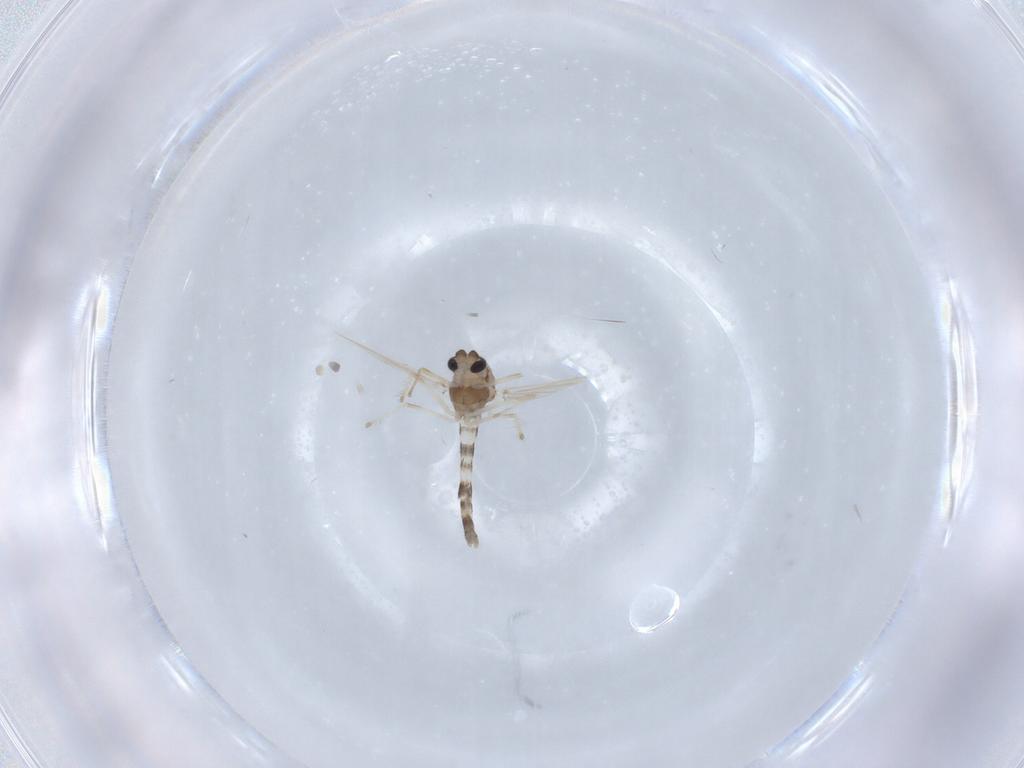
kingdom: Animalia
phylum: Arthropoda
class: Insecta
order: Diptera
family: Chironomidae
